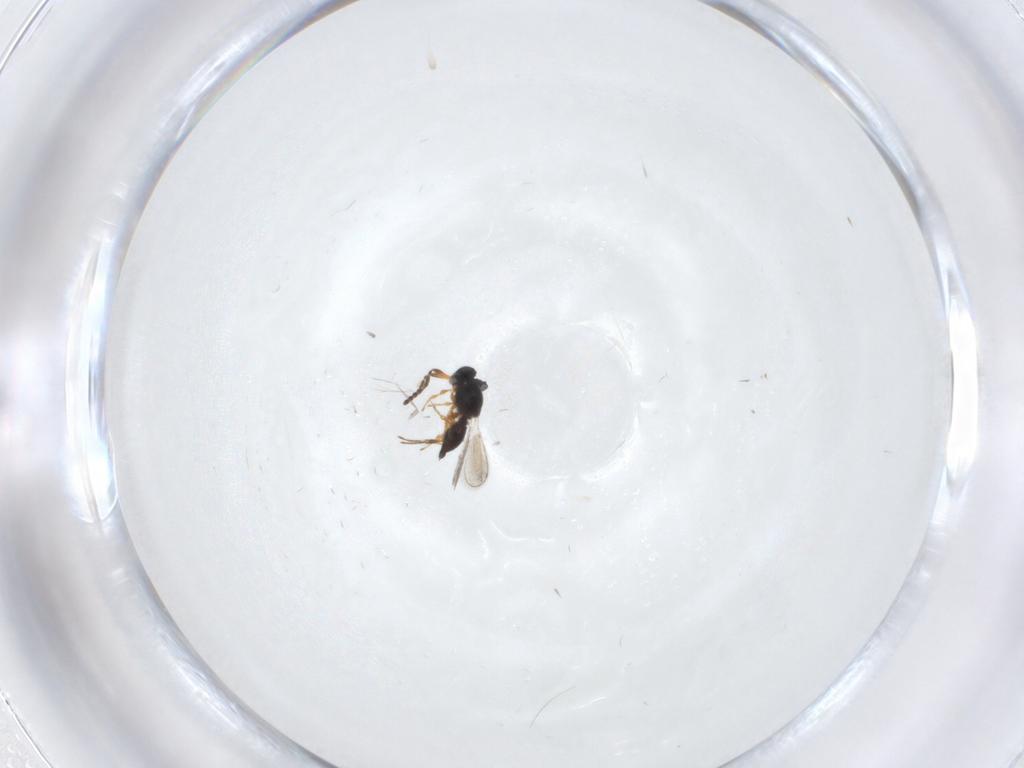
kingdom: Animalia
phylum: Arthropoda
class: Insecta
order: Hymenoptera
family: Platygastridae
